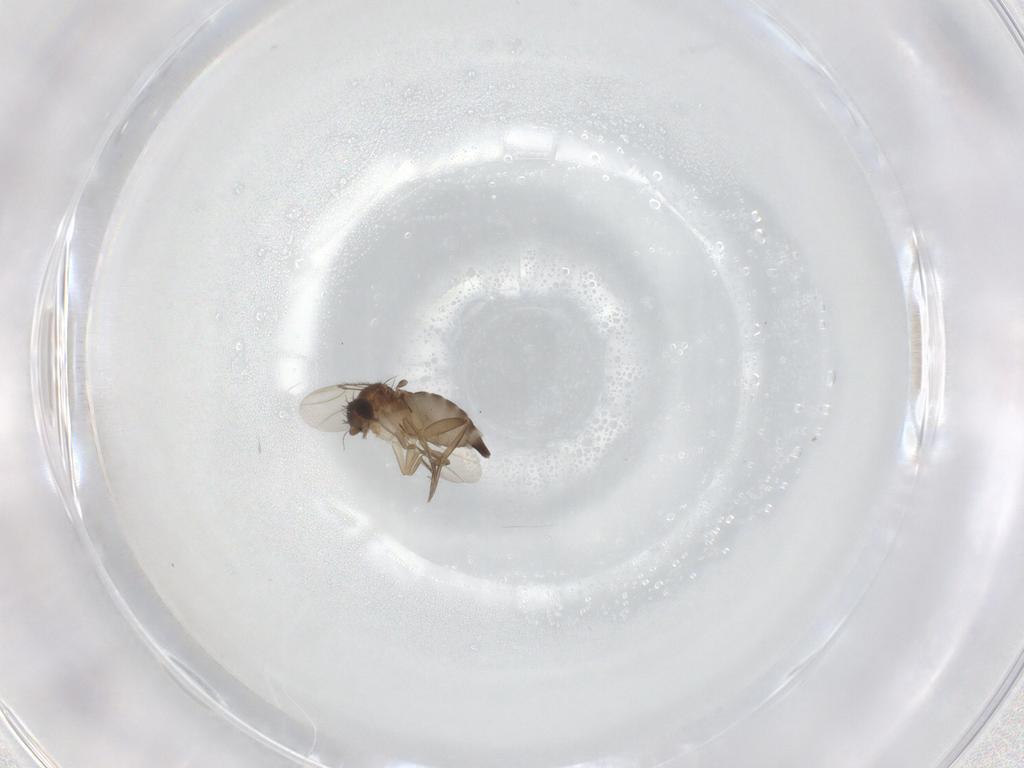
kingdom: Animalia
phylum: Arthropoda
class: Insecta
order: Diptera
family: Phoridae
